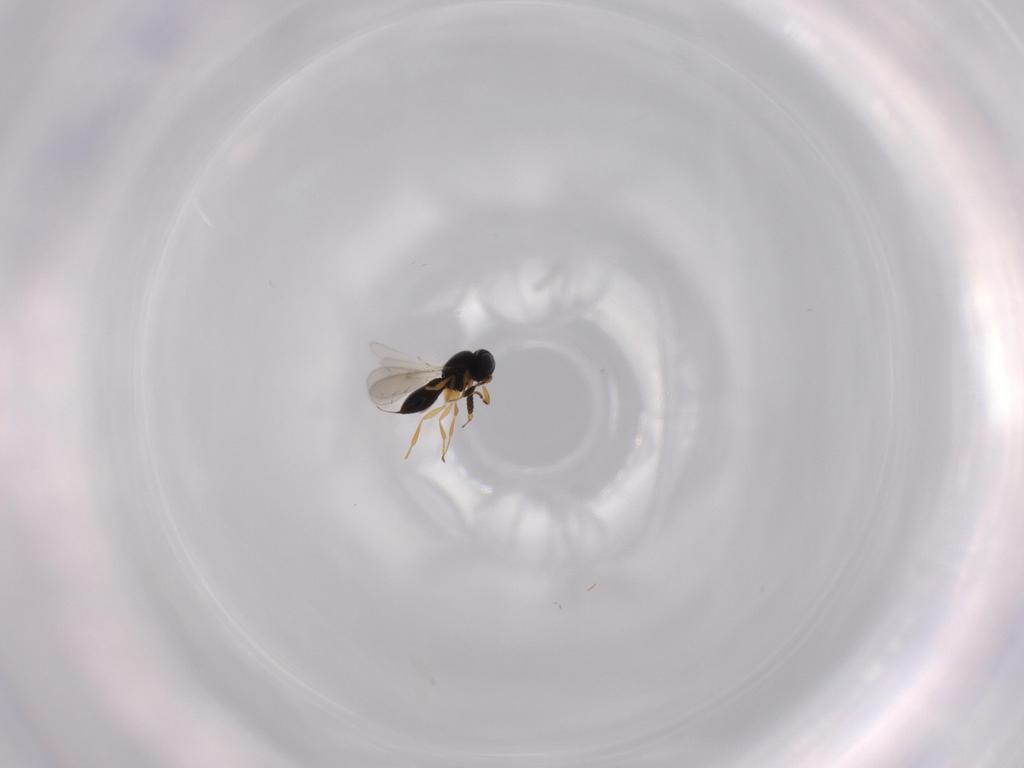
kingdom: Animalia
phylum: Arthropoda
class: Insecta
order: Hymenoptera
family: Scelionidae
